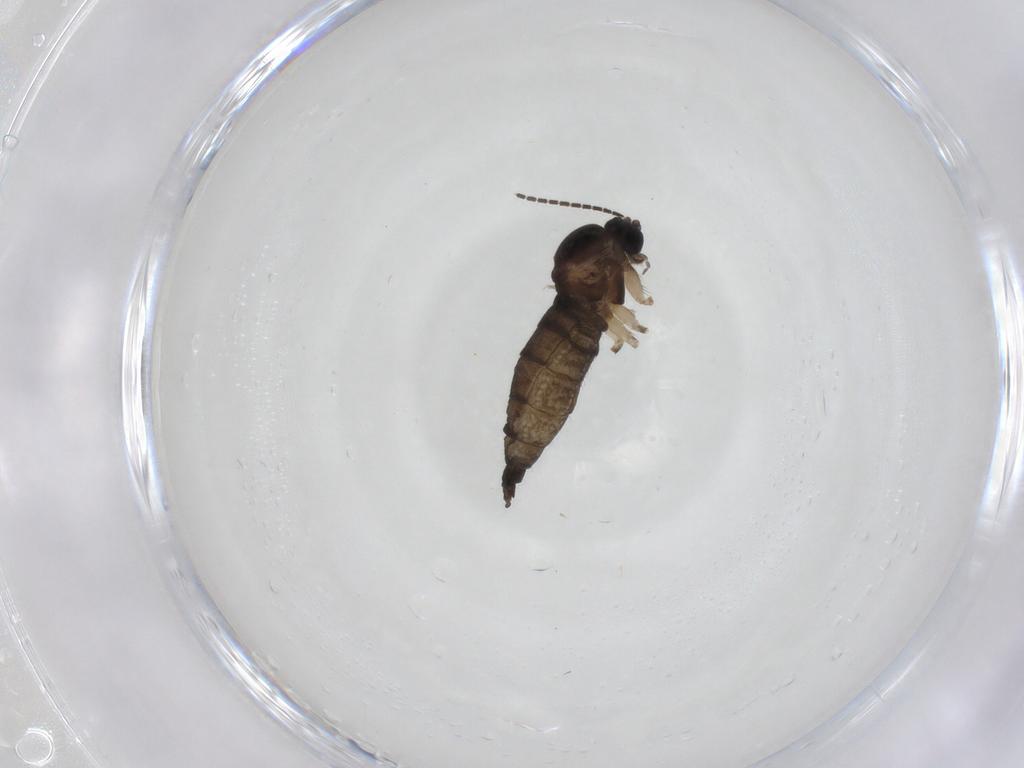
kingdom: Animalia
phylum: Arthropoda
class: Insecta
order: Diptera
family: Sciaridae
